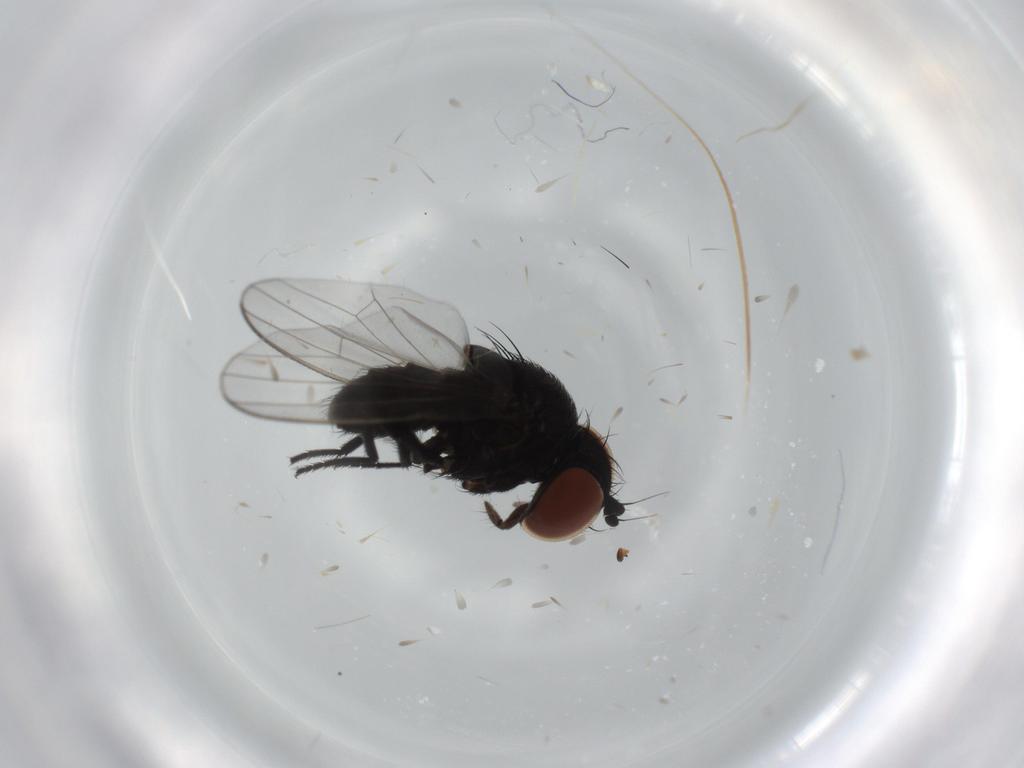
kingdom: Animalia
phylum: Arthropoda
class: Insecta
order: Diptera
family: Milichiidae
